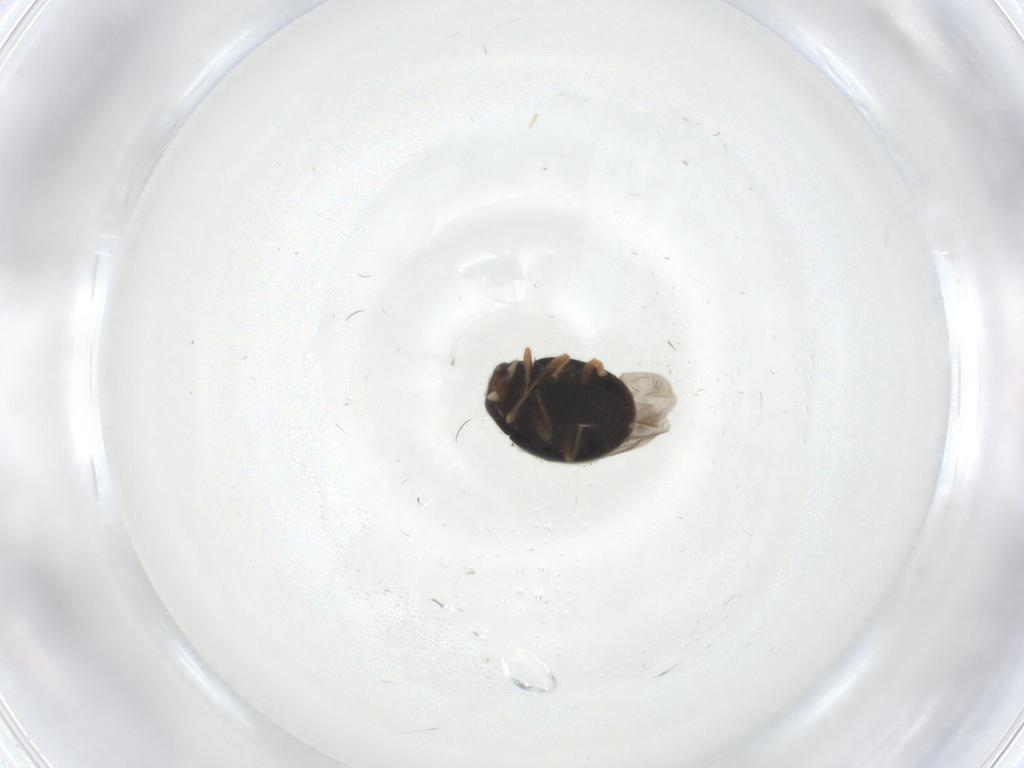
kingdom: Animalia
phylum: Arthropoda
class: Insecta
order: Coleoptera
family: Coccinellidae
